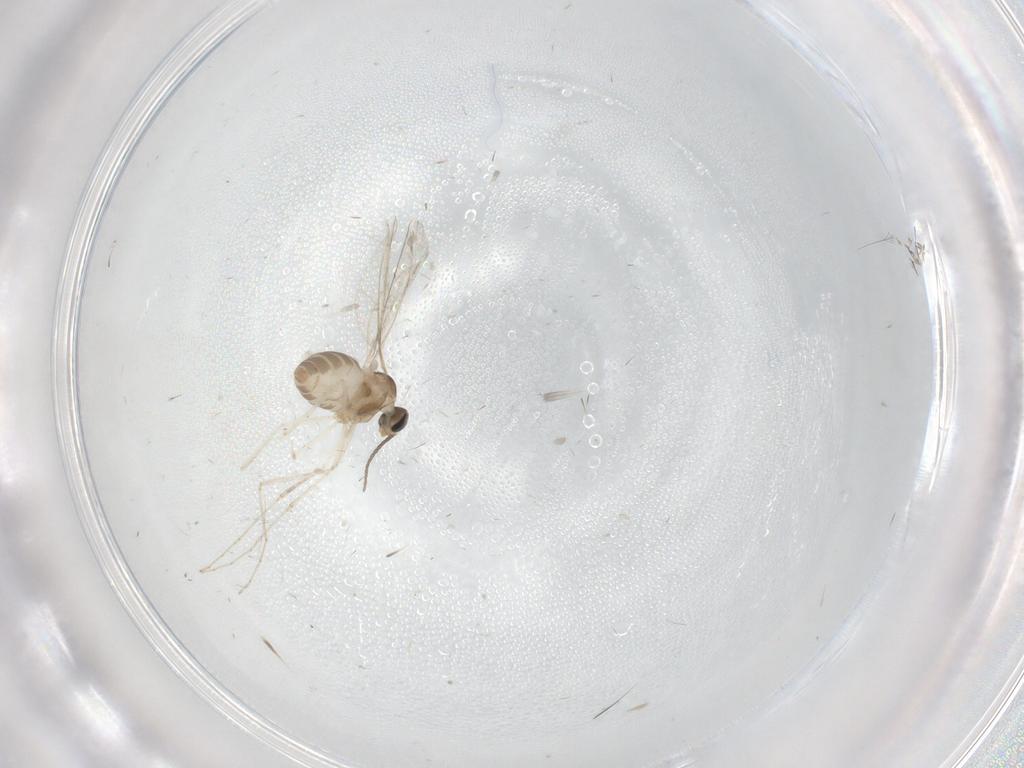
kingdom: Animalia
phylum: Arthropoda
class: Insecta
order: Diptera
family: Cecidomyiidae
